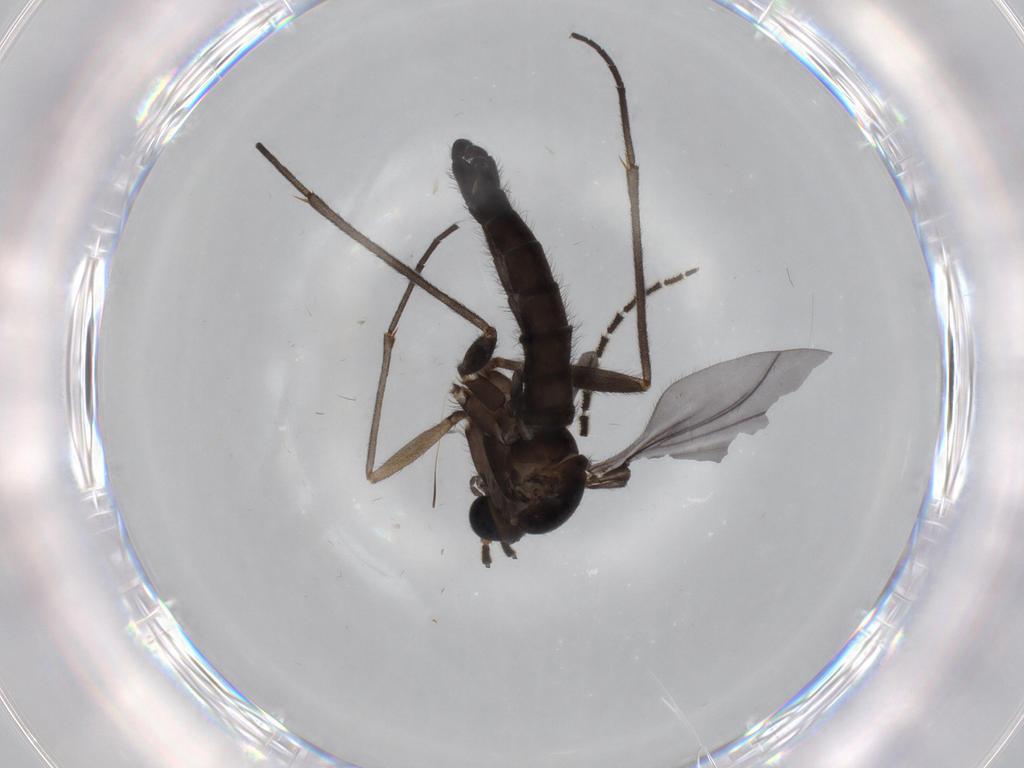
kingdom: Animalia
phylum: Arthropoda
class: Insecta
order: Diptera
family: Sciaridae
